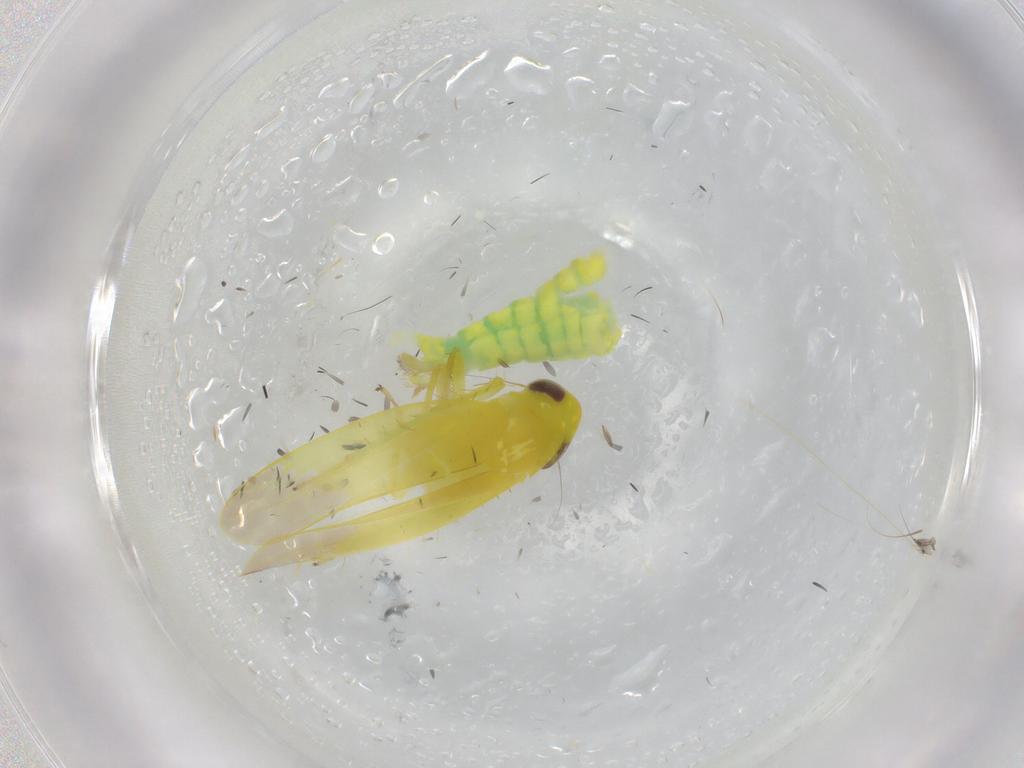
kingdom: Animalia
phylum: Arthropoda
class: Insecta
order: Hemiptera
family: Cicadellidae
